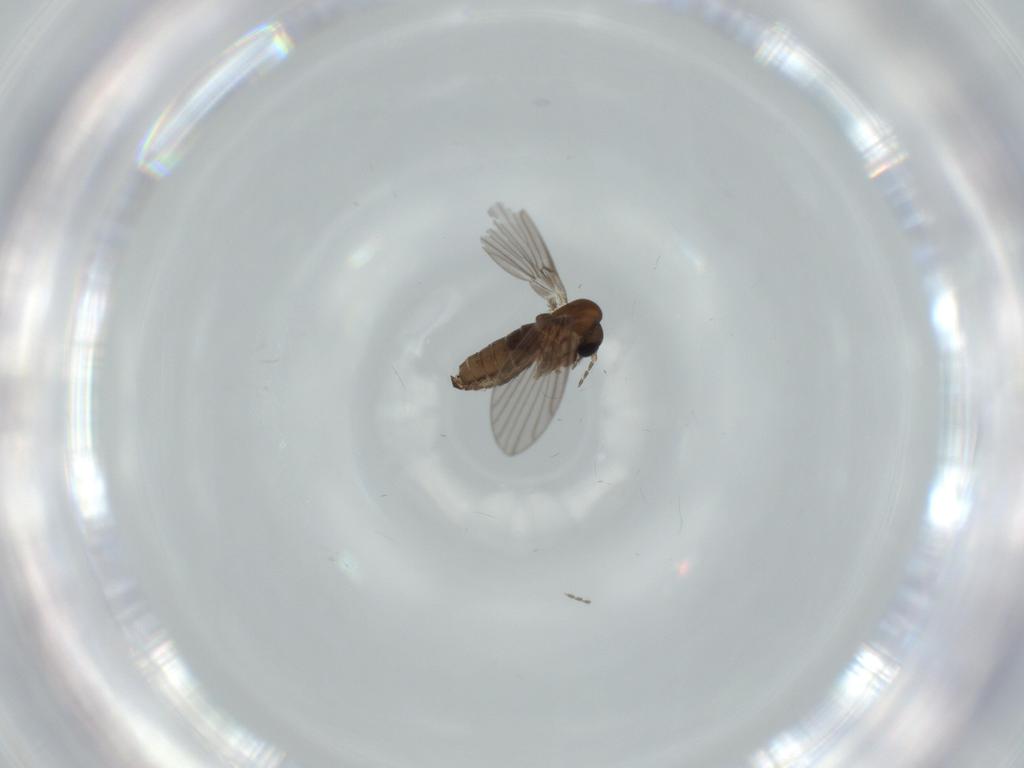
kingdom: Animalia
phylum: Arthropoda
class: Insecta
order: Diptera
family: Psychodidae
